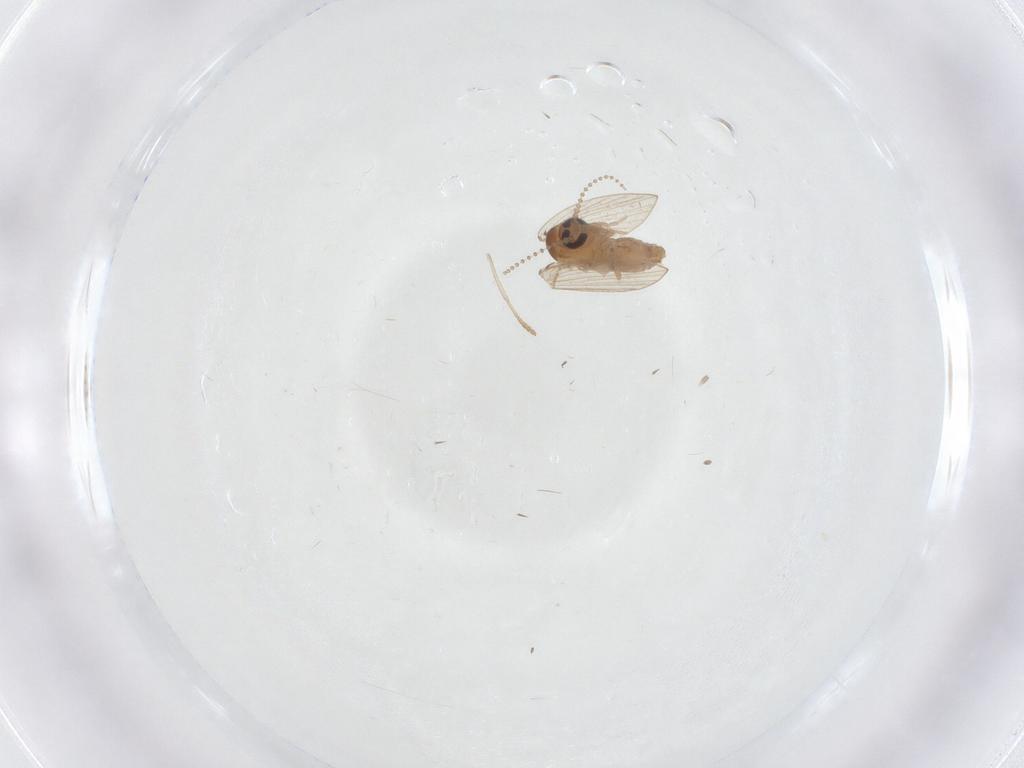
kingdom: Animalia
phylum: Arthropoda
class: Insecta
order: Diptera
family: Psychodidae
